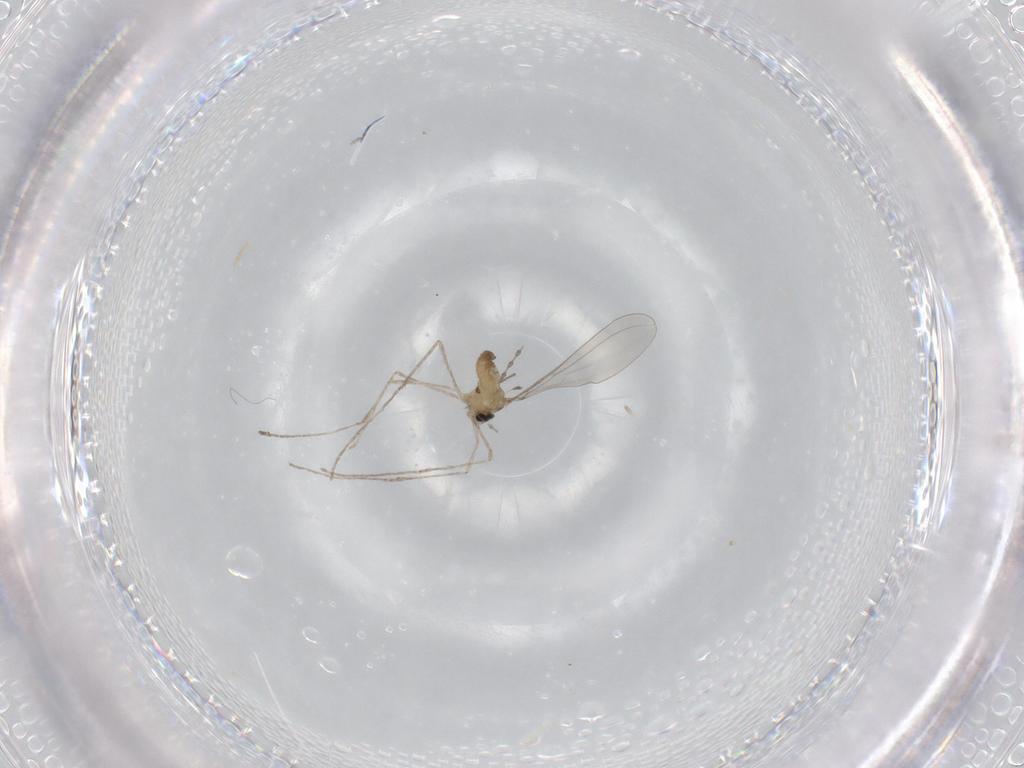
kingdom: Animalia
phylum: Arthropoda
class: Insecta
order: Diptera
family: Cecidomyiidae
